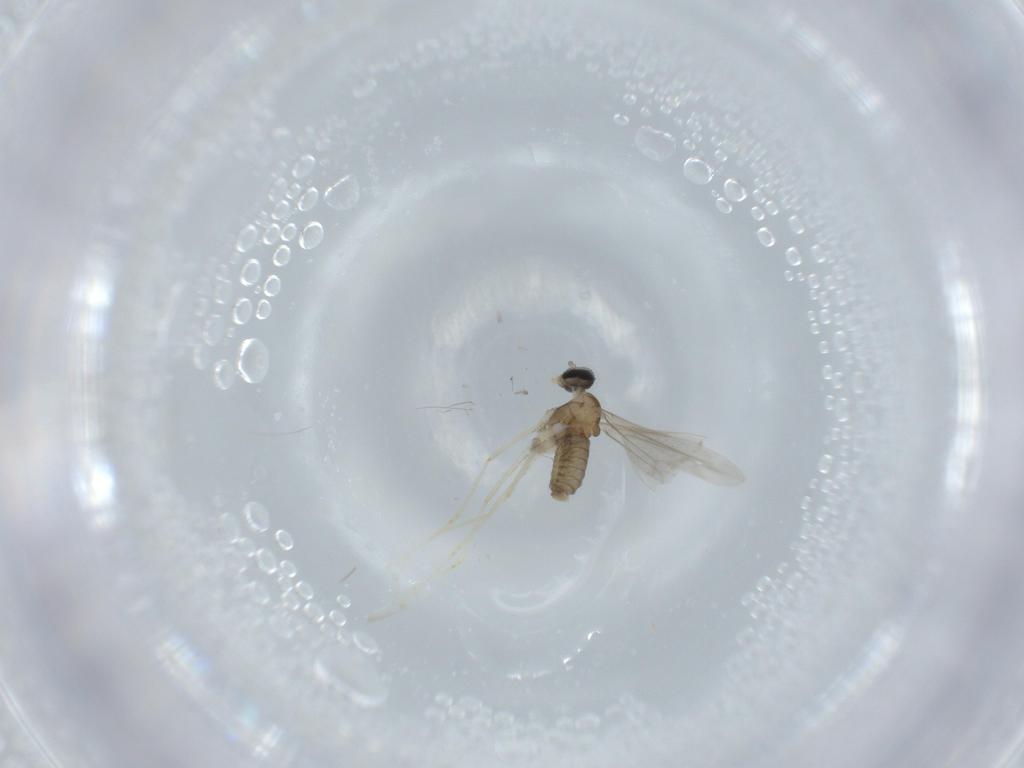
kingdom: Animalia
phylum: Arthropoda
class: Insecta
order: Diptera
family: Cecidomyiidae
